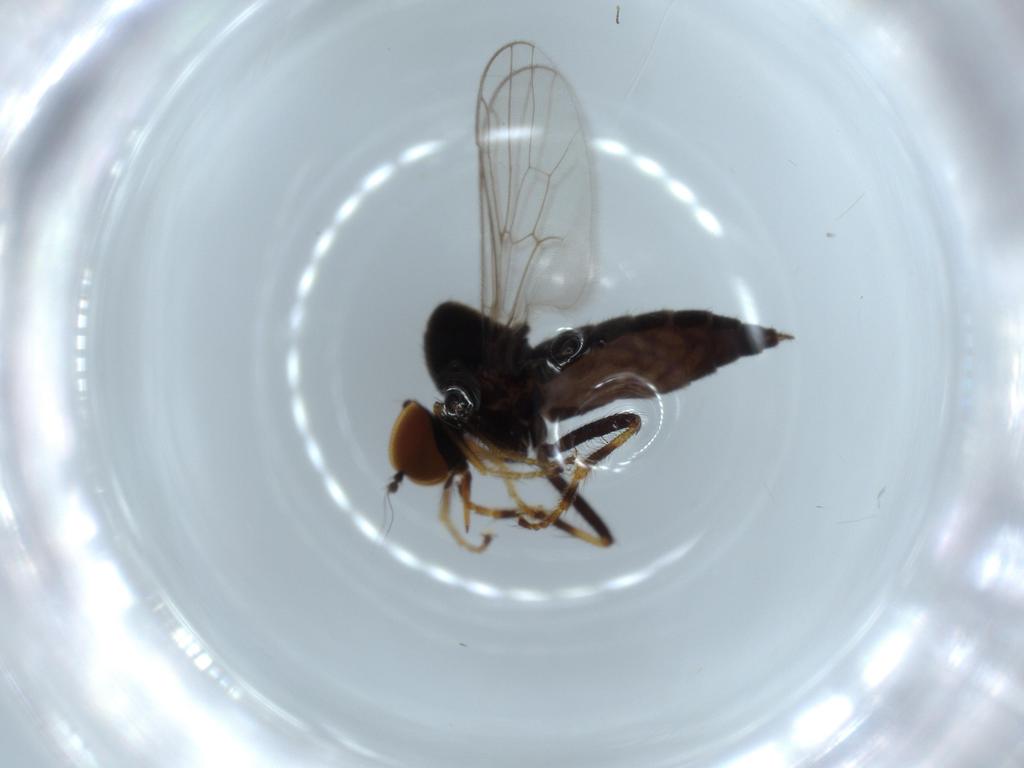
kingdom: Animalia
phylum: Arthropoda
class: Insecta
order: Diptera
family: Hybotidae
